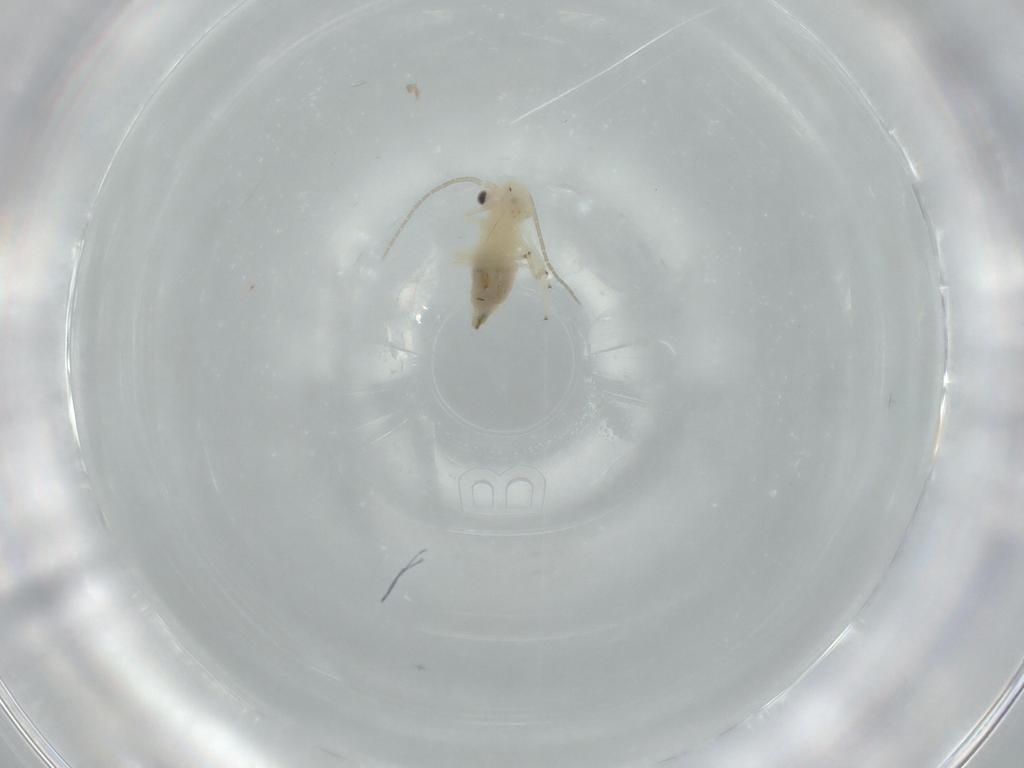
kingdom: Animalia
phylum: Arthropoda
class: Insecta
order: Psocodea
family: Caeciliusidae
